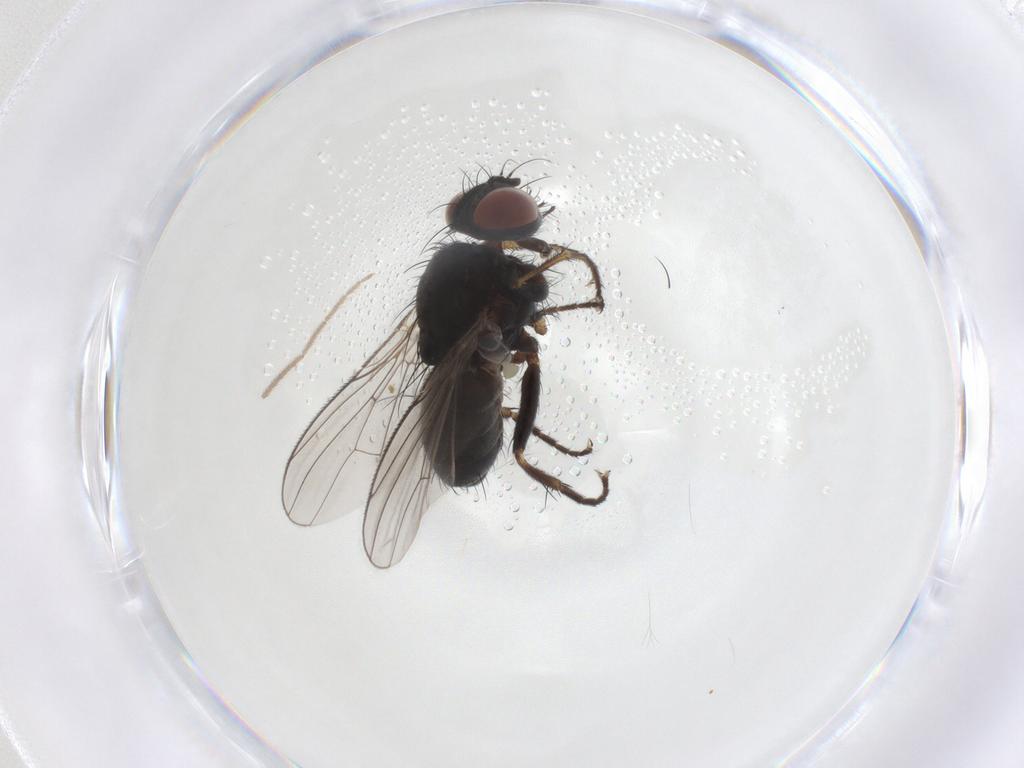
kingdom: Animalia
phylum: Arthropoda
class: Insecta
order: Diptera
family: Muscidae
